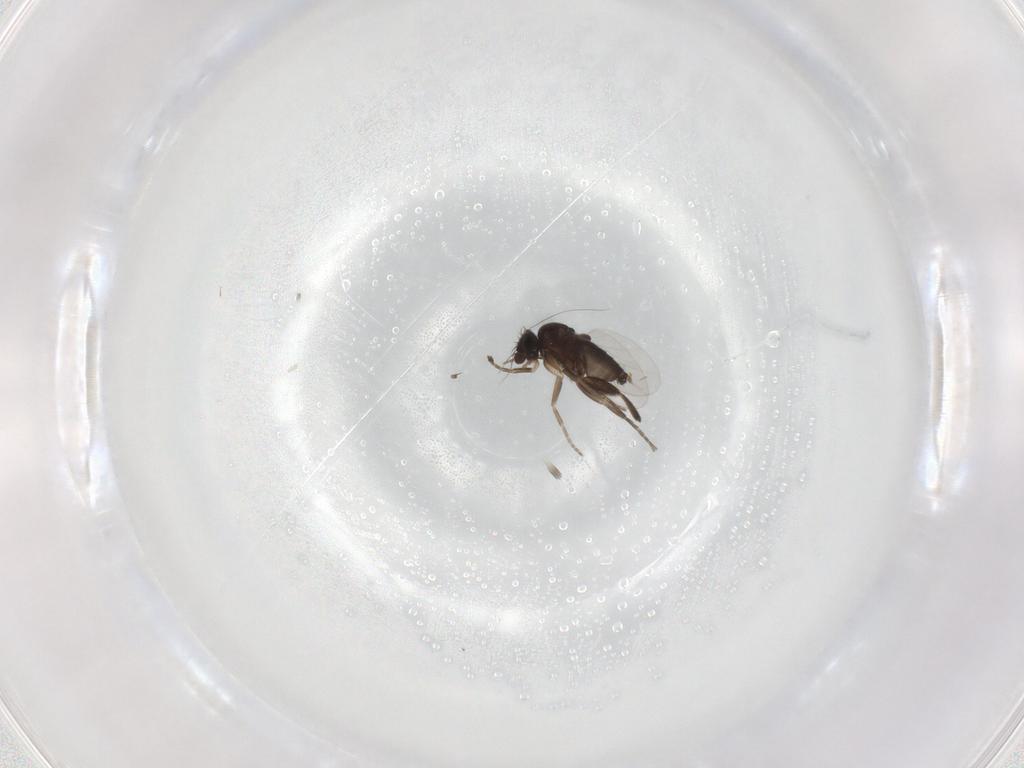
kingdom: Animalia
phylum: Arthropoda
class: Insecta
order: Diptera
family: Phoridae
